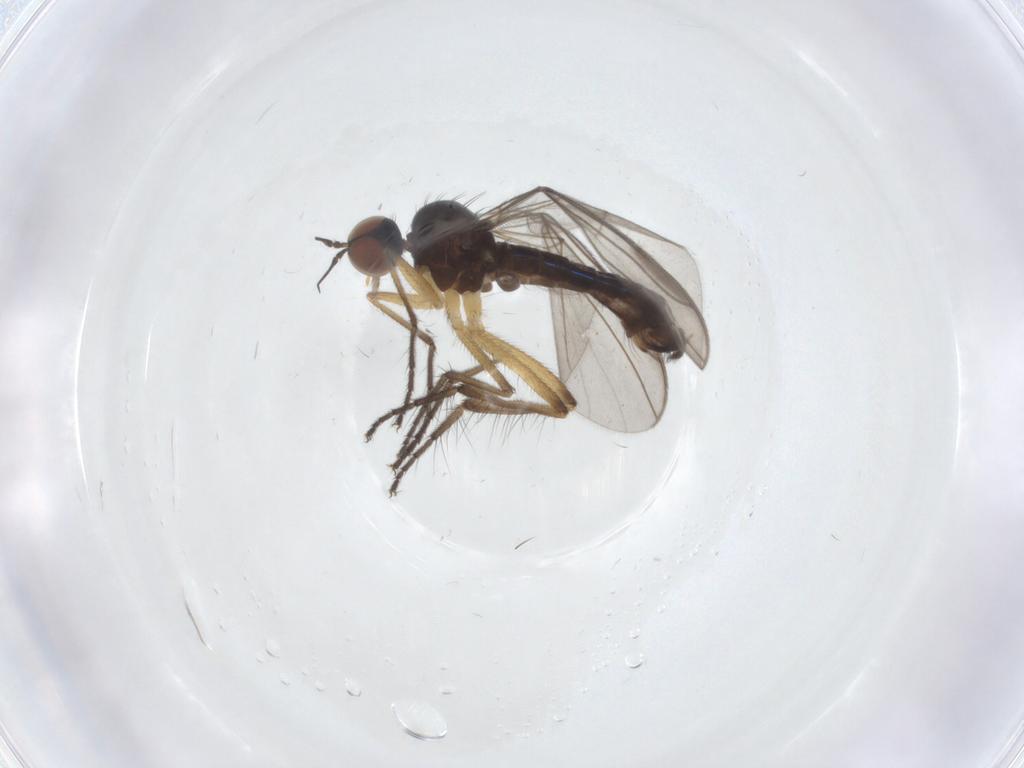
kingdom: Animalia
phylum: Arthropoda
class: Insecta
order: Diptera
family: Empididae
